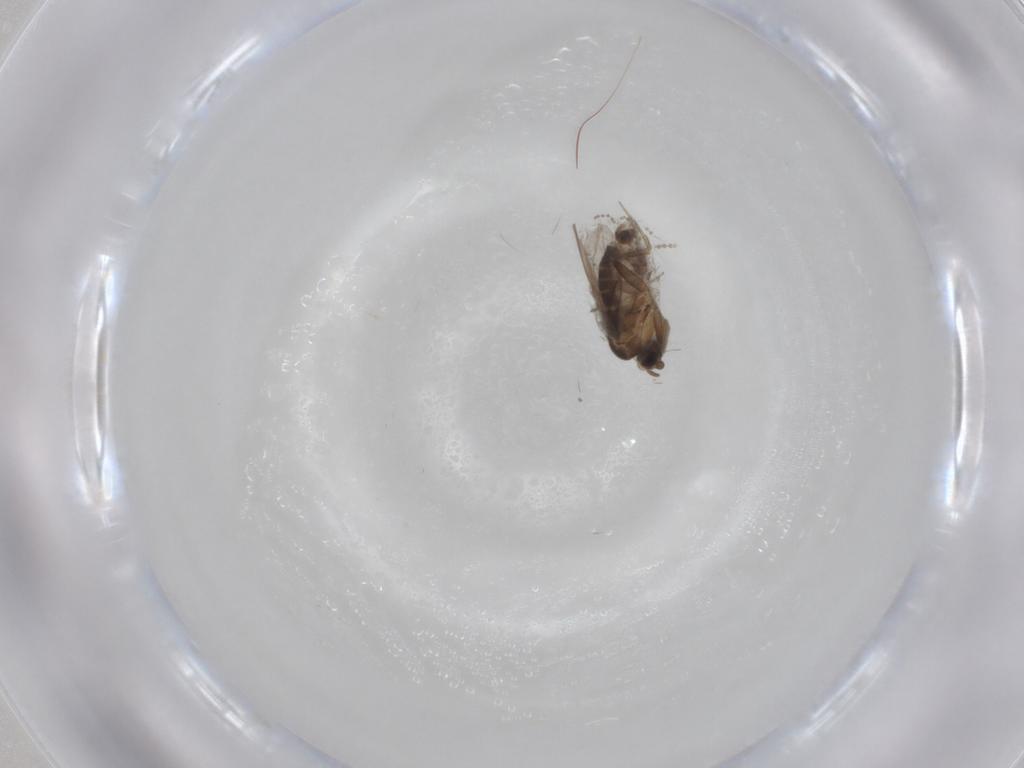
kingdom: Animalia
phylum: Arthropoda
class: Insecta
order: Diptera
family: Cecidomyiidae
